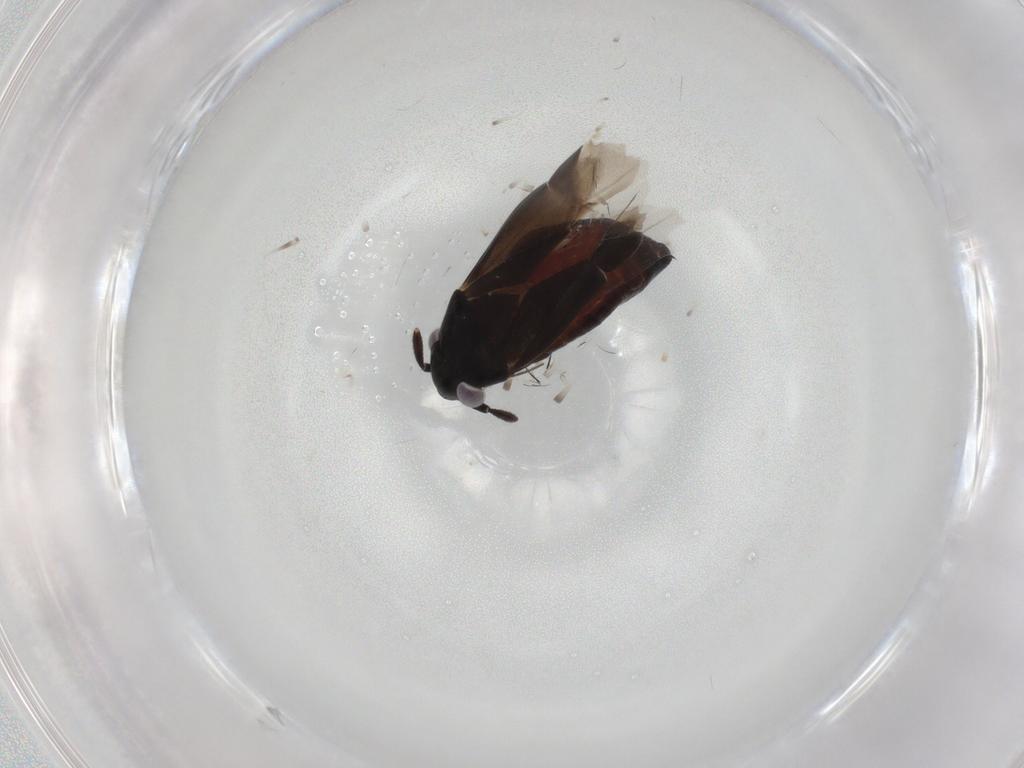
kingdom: Animalia
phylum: Arthropoda
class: Insecta
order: Hemiptera
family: Miridae
